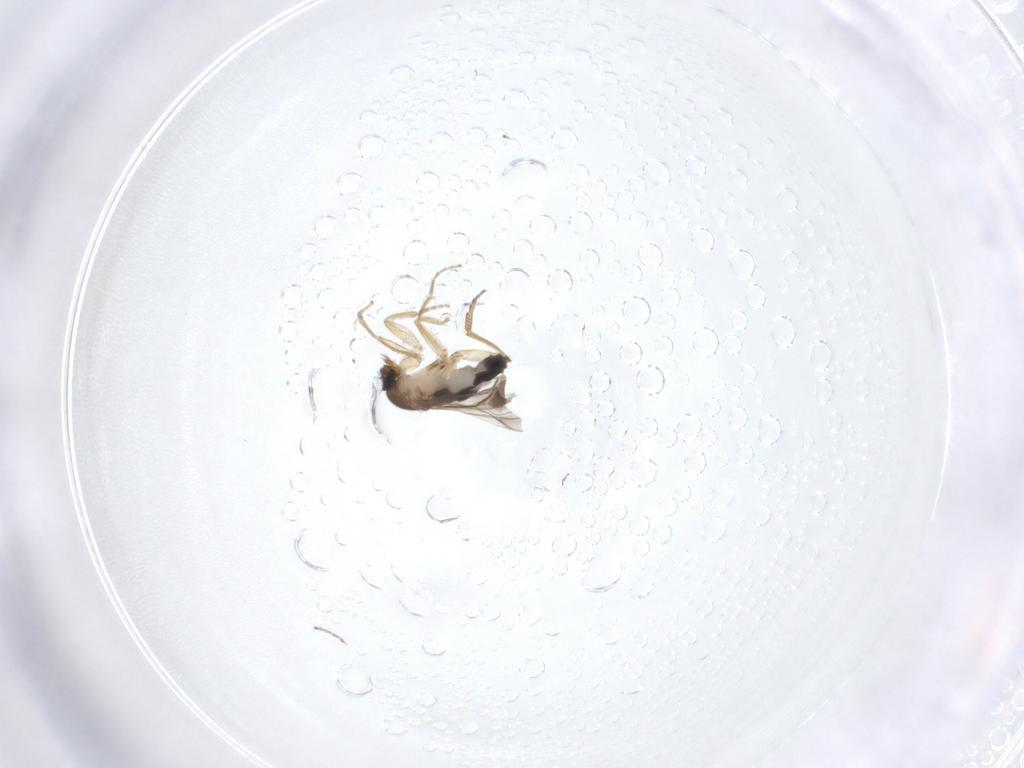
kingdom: Animalia
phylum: Arthropoda
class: Insecta
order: Diptera
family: Phoridae
